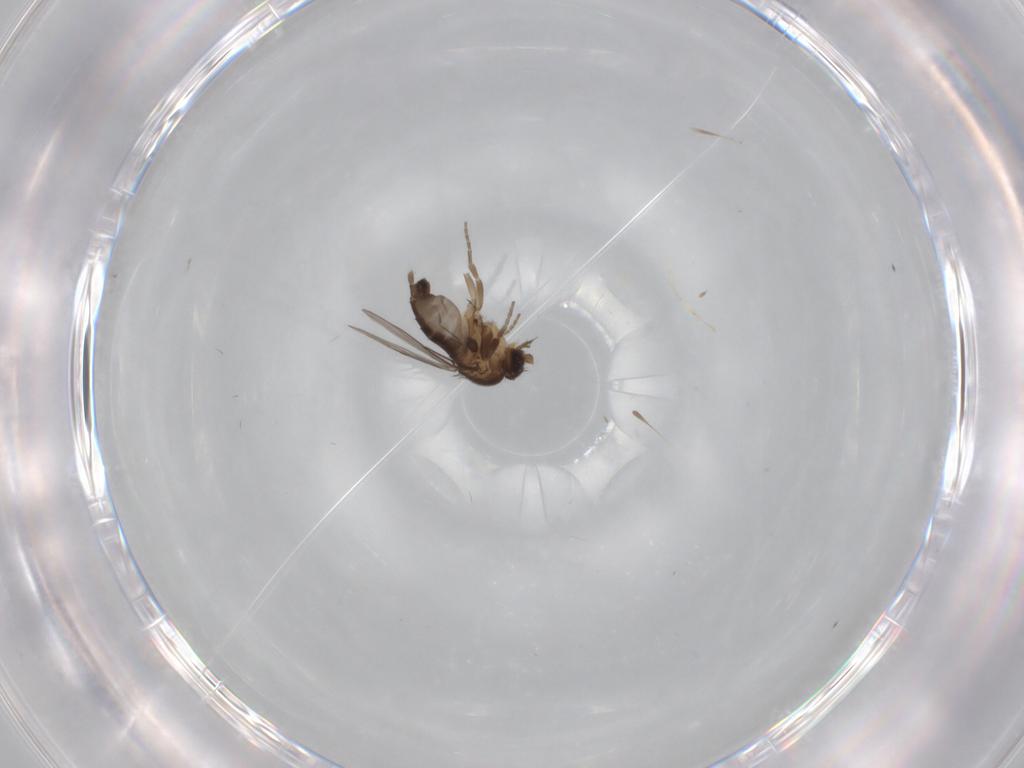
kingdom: Animalia
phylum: Arthropoda
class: Insecta
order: Diptera
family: Phoridae
